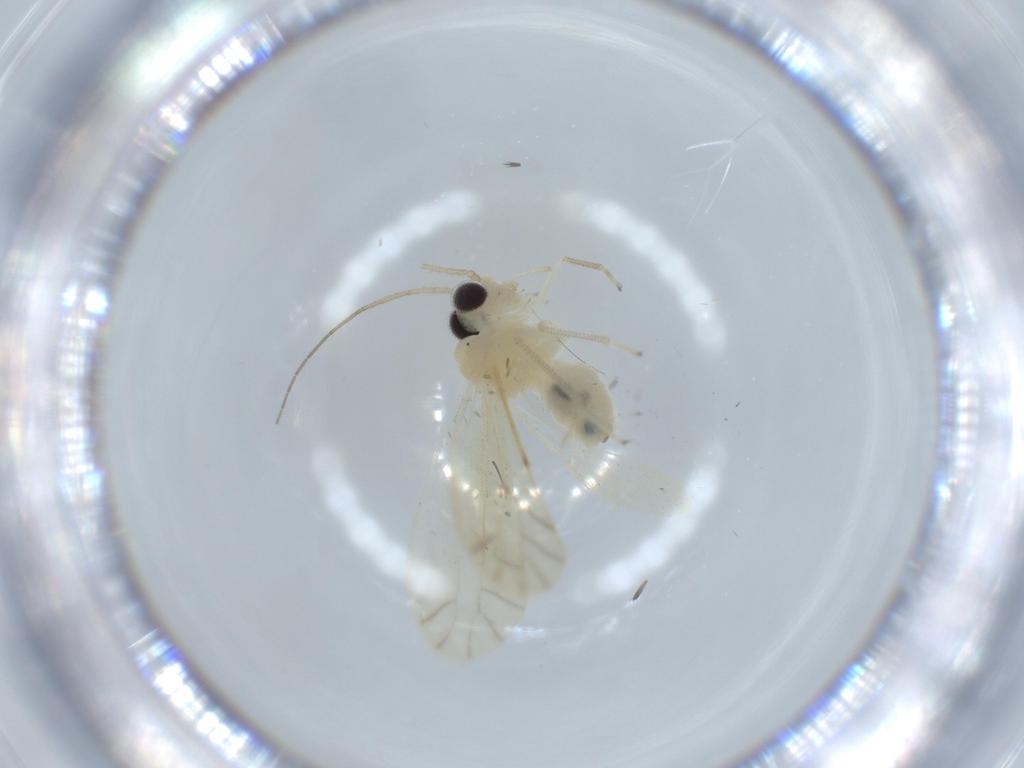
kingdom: Animalia
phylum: Arthropoda
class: Insecta
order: Psocodea
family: Caeciliusidae
